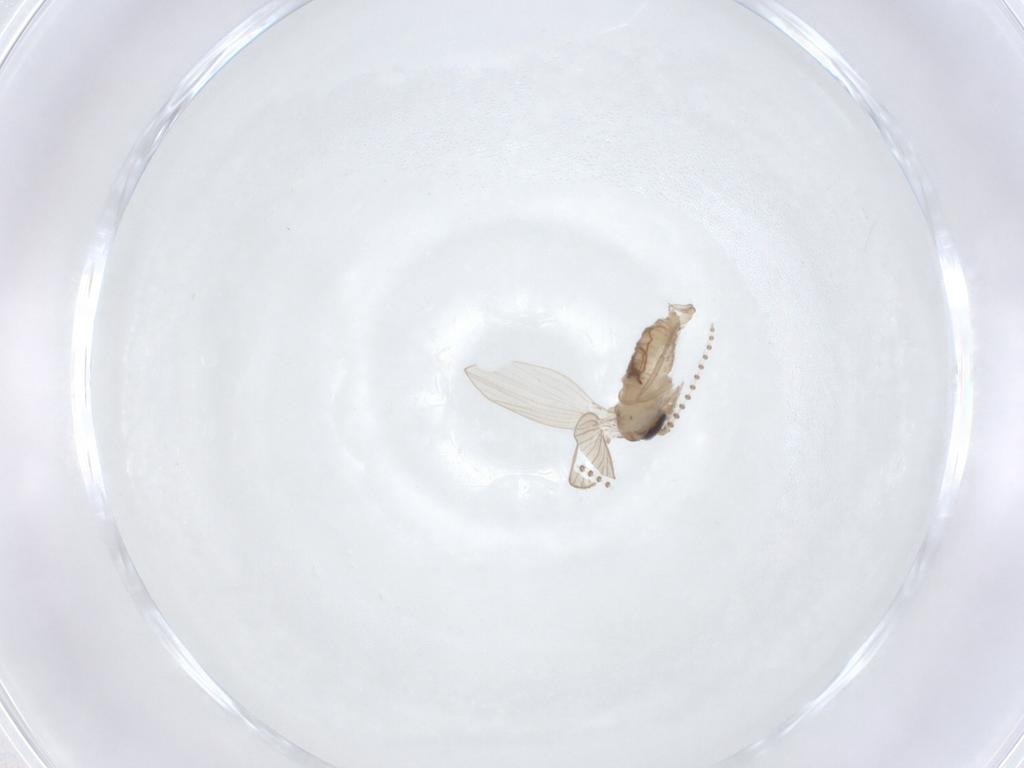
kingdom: Animalia
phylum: Arthropoda
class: Insecta
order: Diptera
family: Psychodidae
